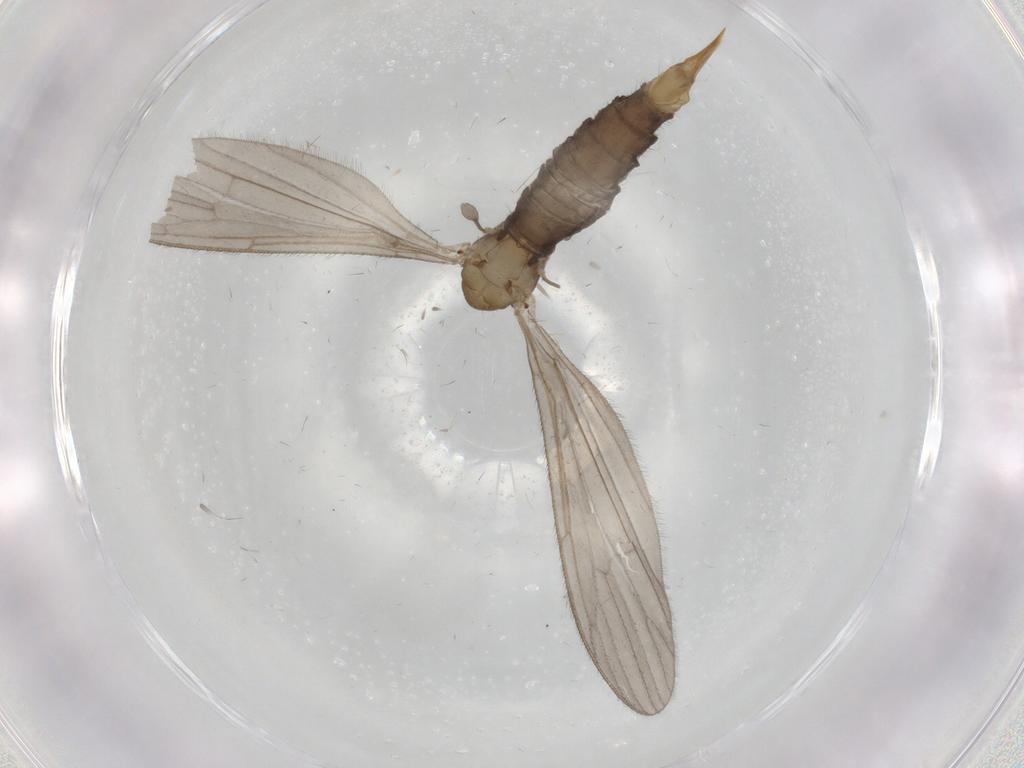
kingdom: Animalia
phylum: Arthropoda
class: Insecta
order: Diptera
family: Limoniidae
